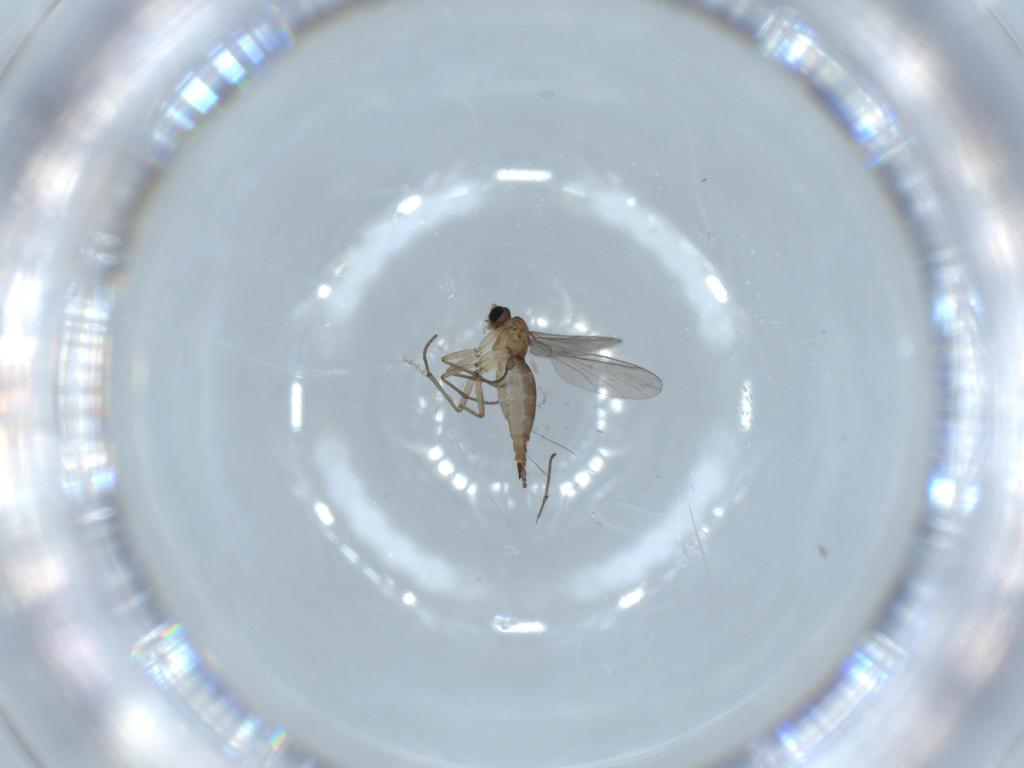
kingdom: Animalia
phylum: Arthropoda
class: Insecta
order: Diptera
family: Sciaridae
